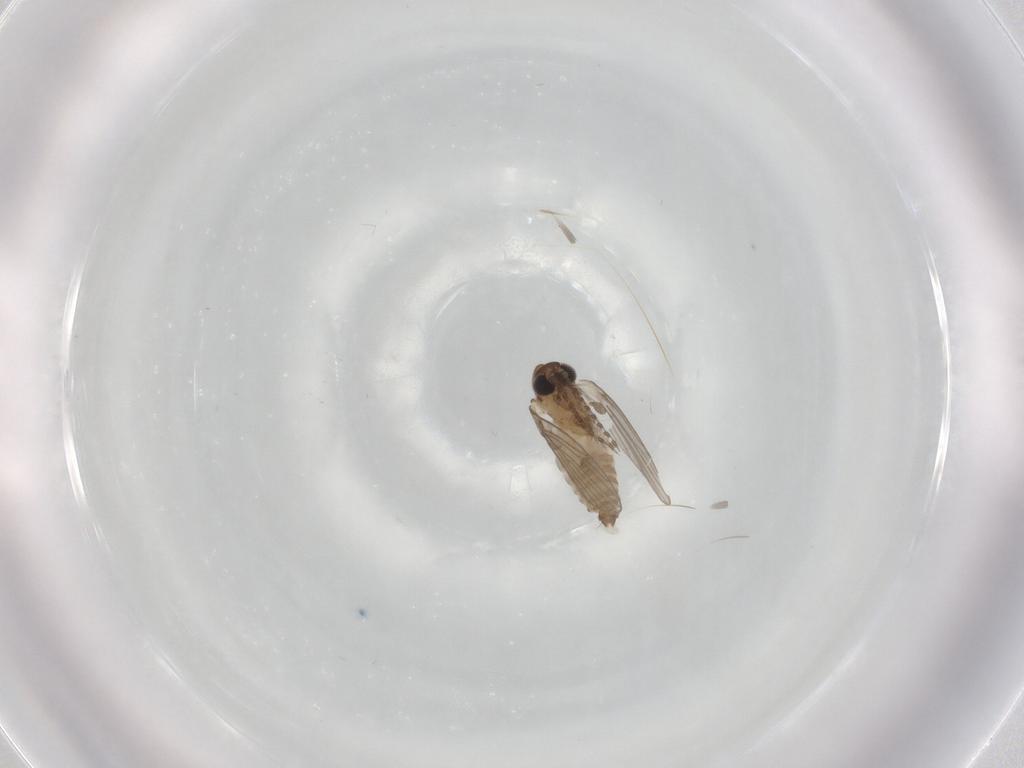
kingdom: Animalia
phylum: Arthropoda
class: Insecta
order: Diptera
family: Psychodidae
